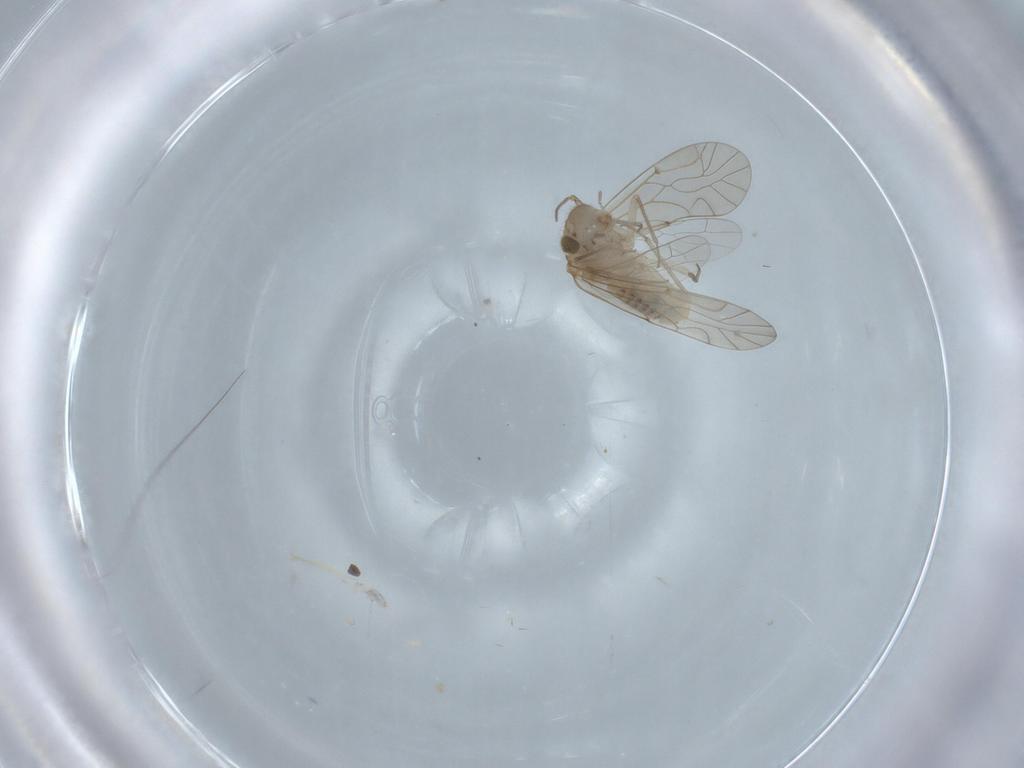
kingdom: Animalia
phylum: Arthropoda
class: Insecta
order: Psocodea
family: Lachesillidae
